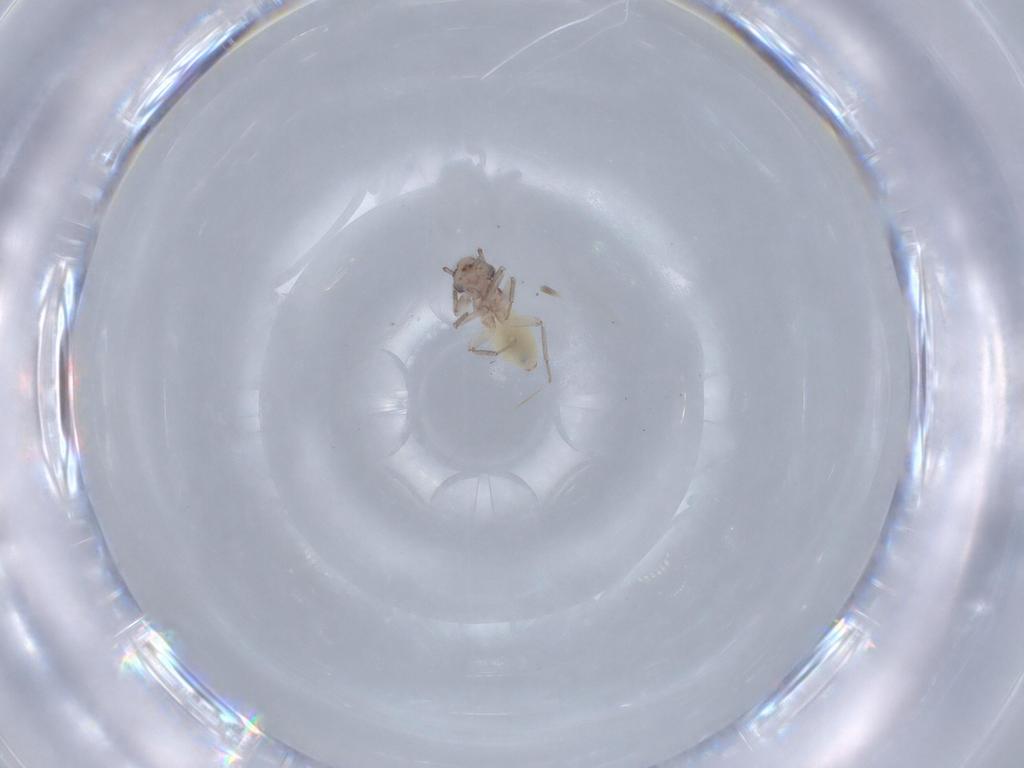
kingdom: Animalia
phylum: Arthropoda
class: Insecta
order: Psocodea
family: Lepidopsocidae
